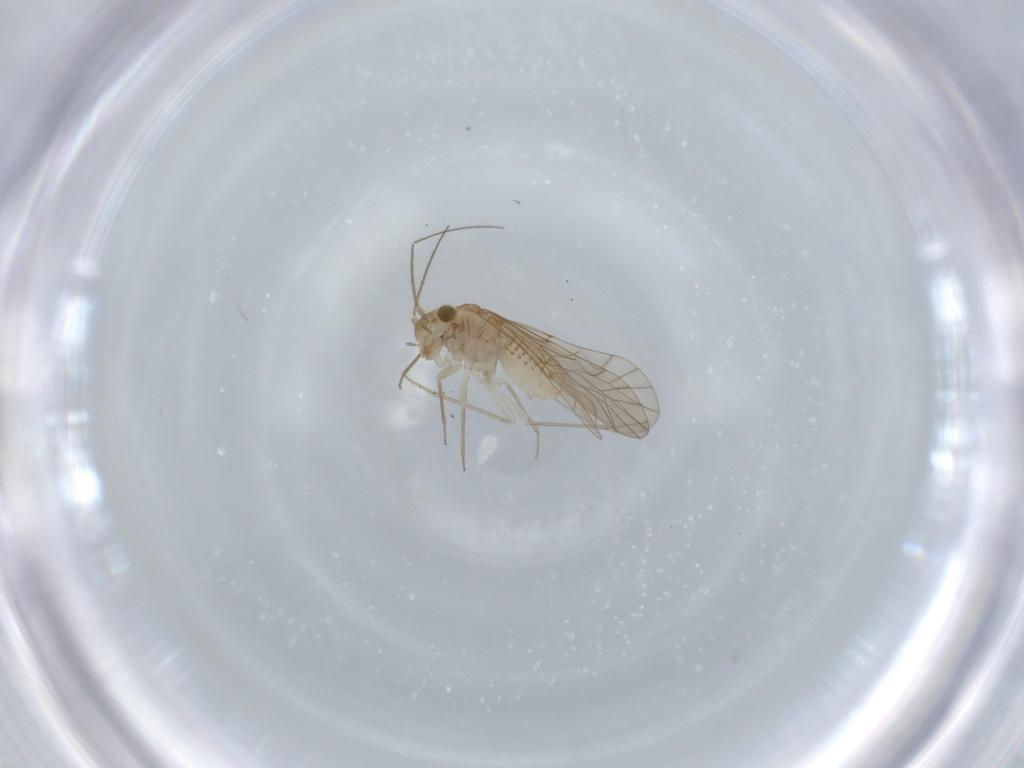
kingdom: Animalia
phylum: Arthropoda
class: Insecta
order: Psocodea
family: Lachesillidae
